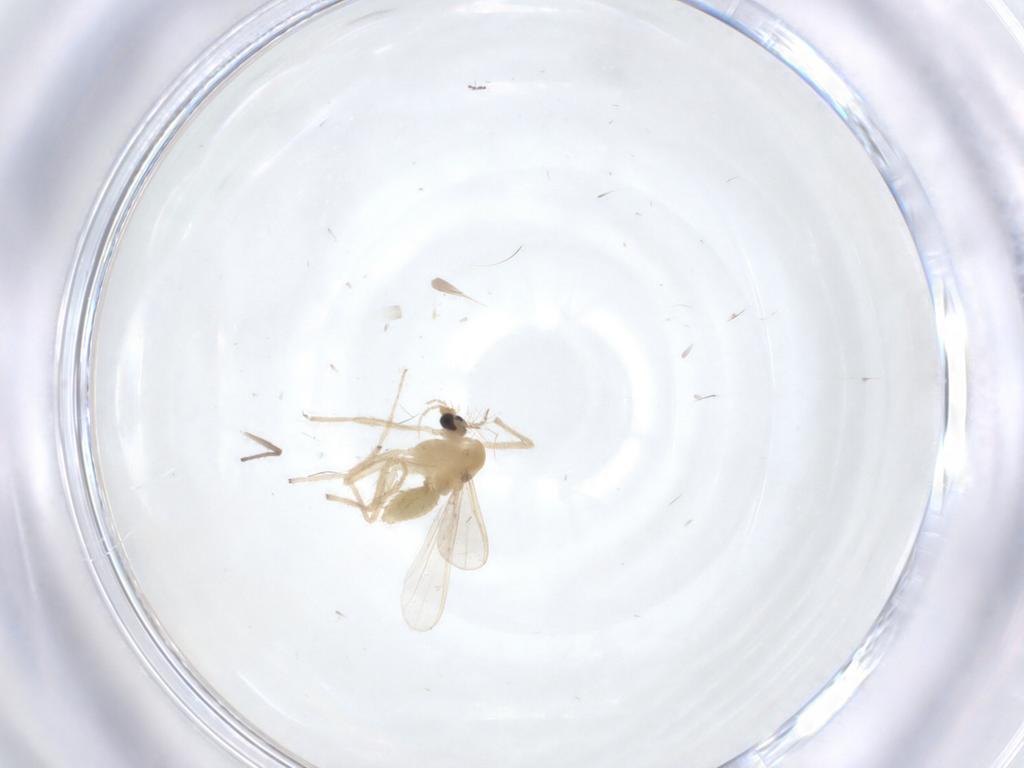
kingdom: Animalia
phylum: Arthropoda
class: Insecta
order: Diptera
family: Chironomidae
